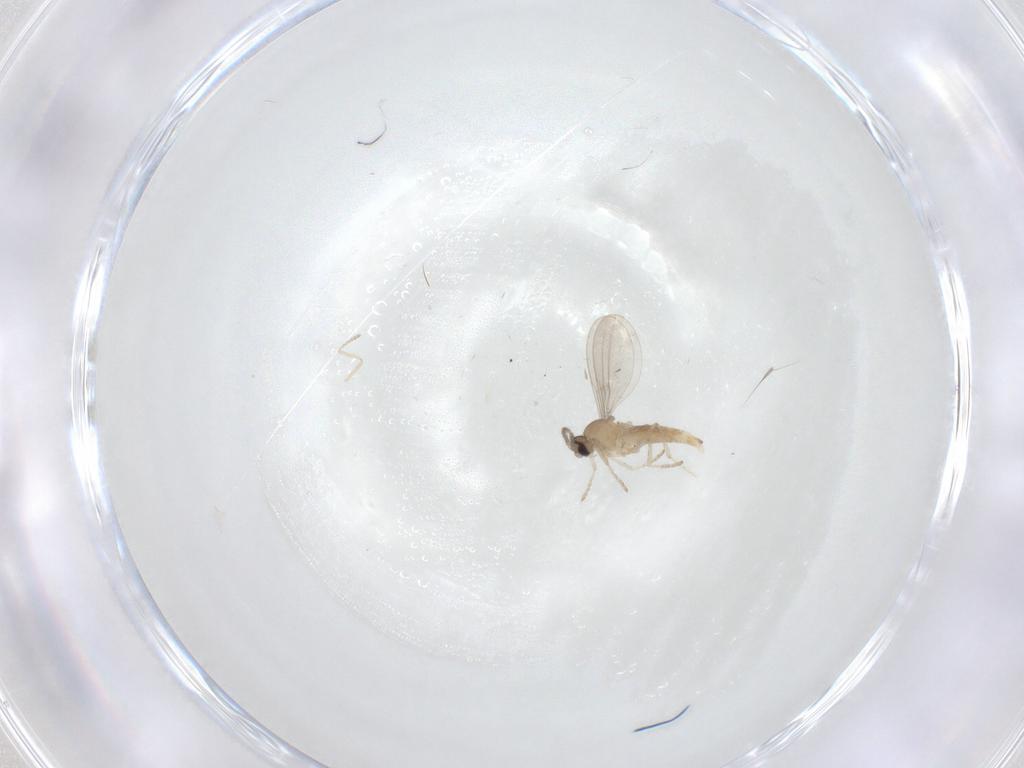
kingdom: Animalia
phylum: Arthropoda
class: Insecta
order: Diptera
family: Cecidomyiidae
